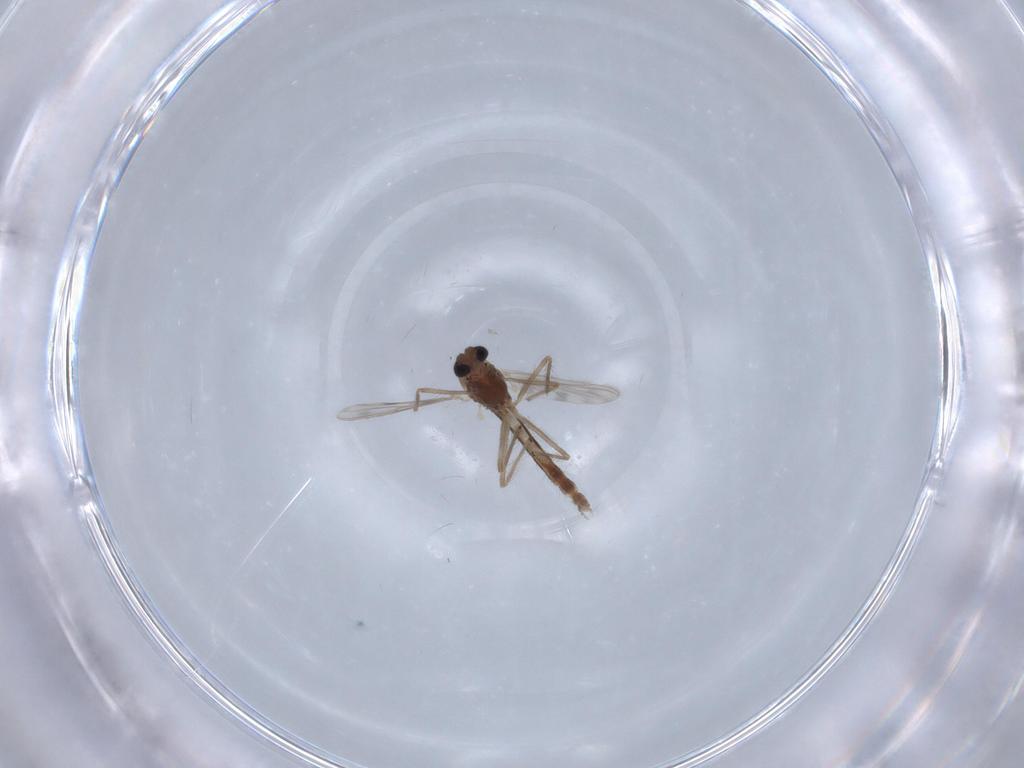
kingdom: Animalia
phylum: Arthropoda
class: Insecta
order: Diptera
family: Chironomidae
